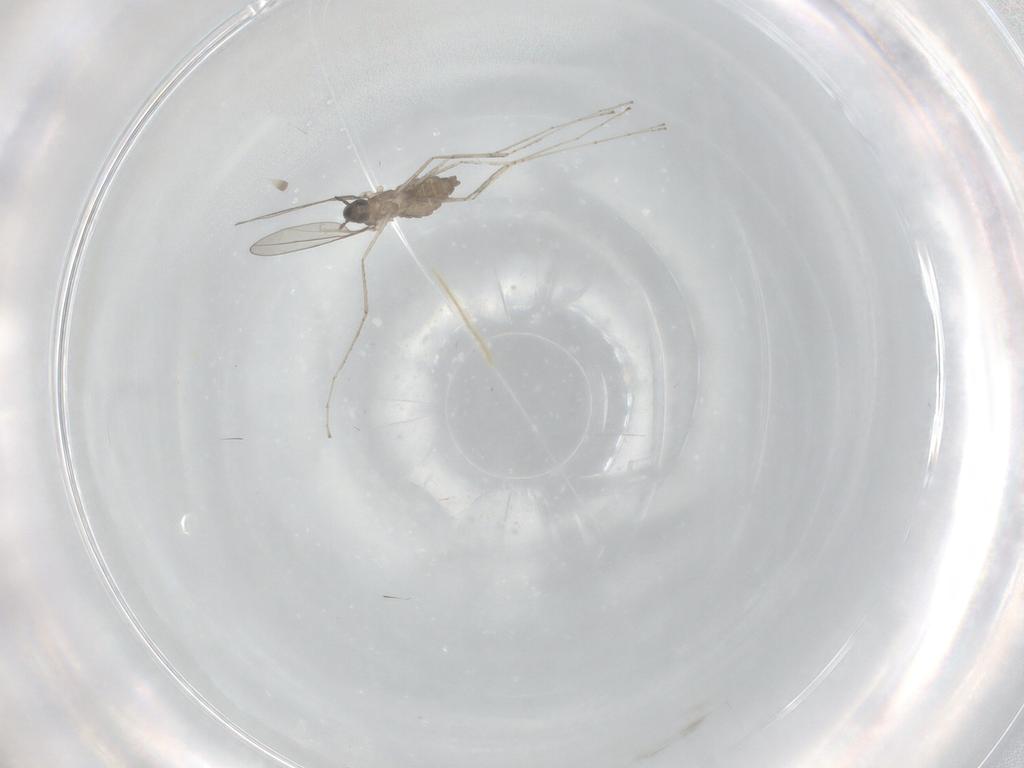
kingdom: Animalia
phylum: Arthropoda
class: Insecta
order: Diptera
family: Cecidomyiidae
